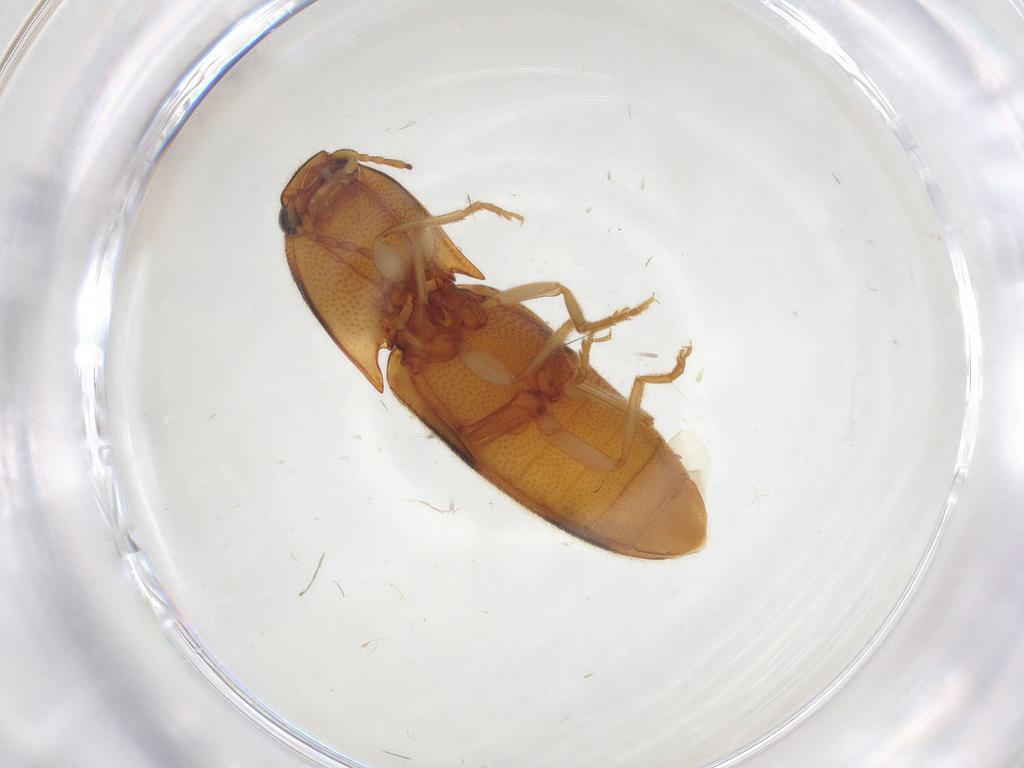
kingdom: Animalia
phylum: Arthropoda
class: Insecta
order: Coleoptera
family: Elateridae
